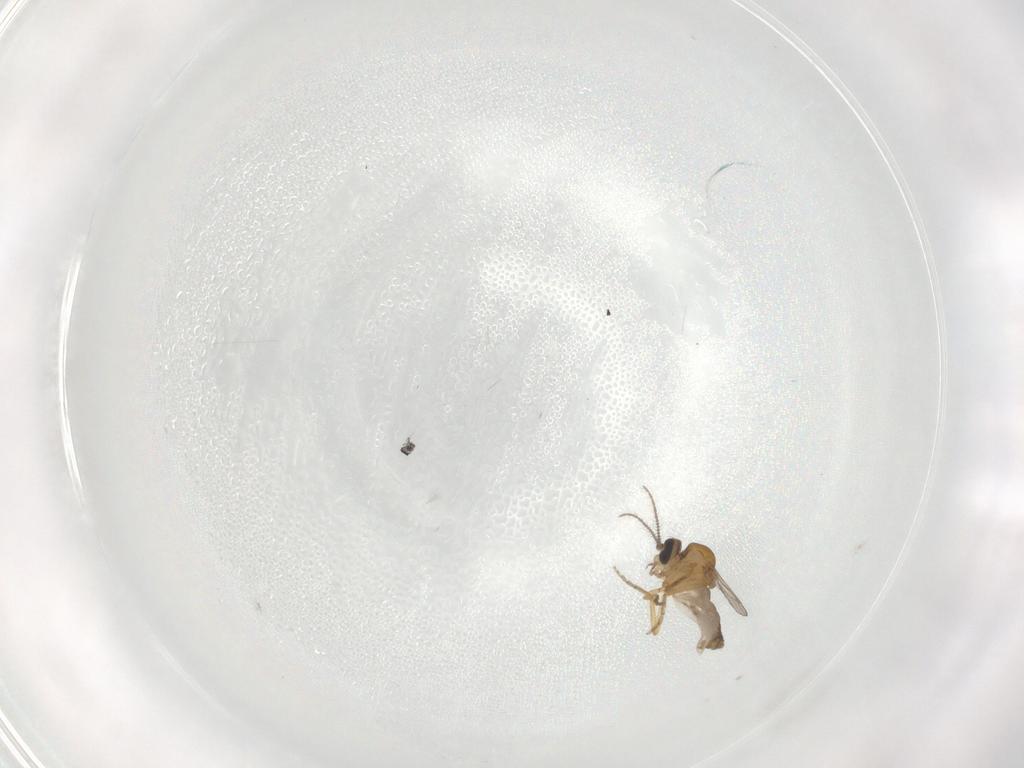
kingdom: Animalia
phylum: Arthropoda
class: Insecta
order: Diptera
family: Ceratopogonidae
